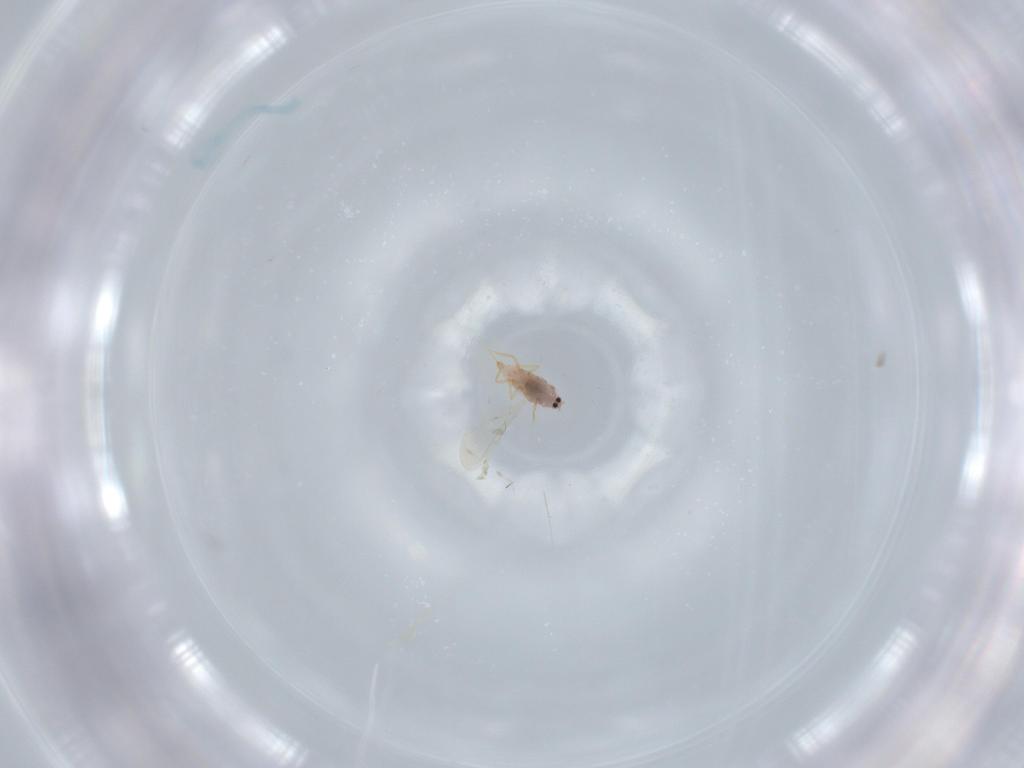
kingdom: Animalia
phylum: Arthropoda
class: Insecta
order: Hemiptera
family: Diaspididae
